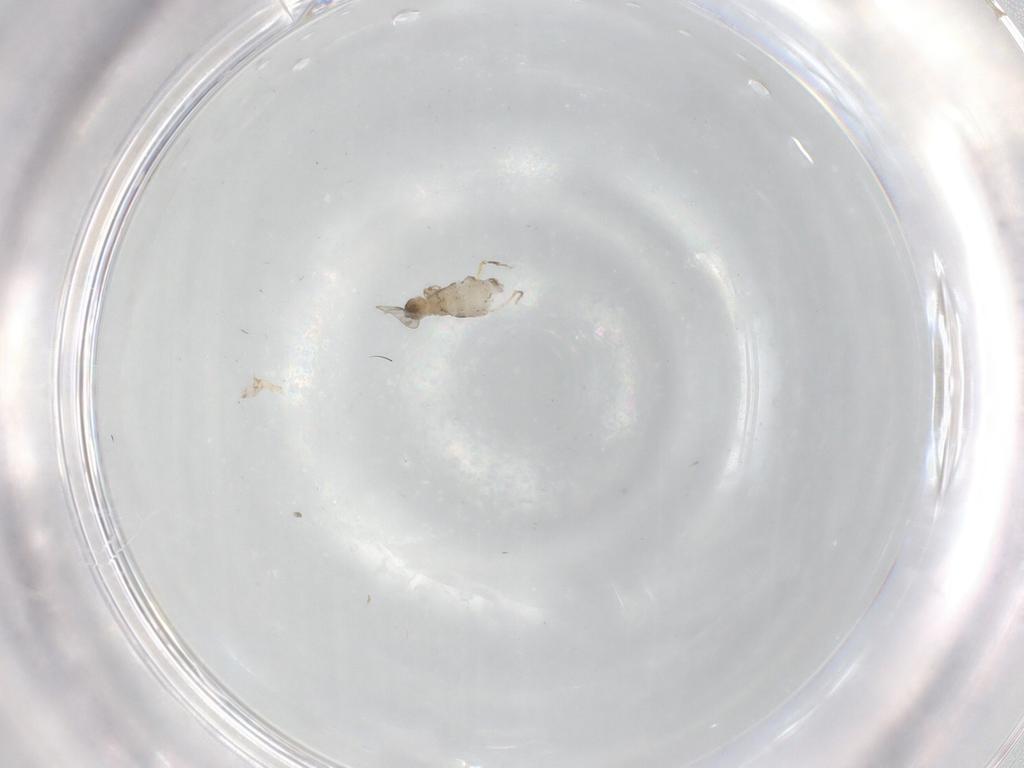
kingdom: Animalia
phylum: Arthropoda
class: Insecta
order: Diptera
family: Cecidomyiidae
